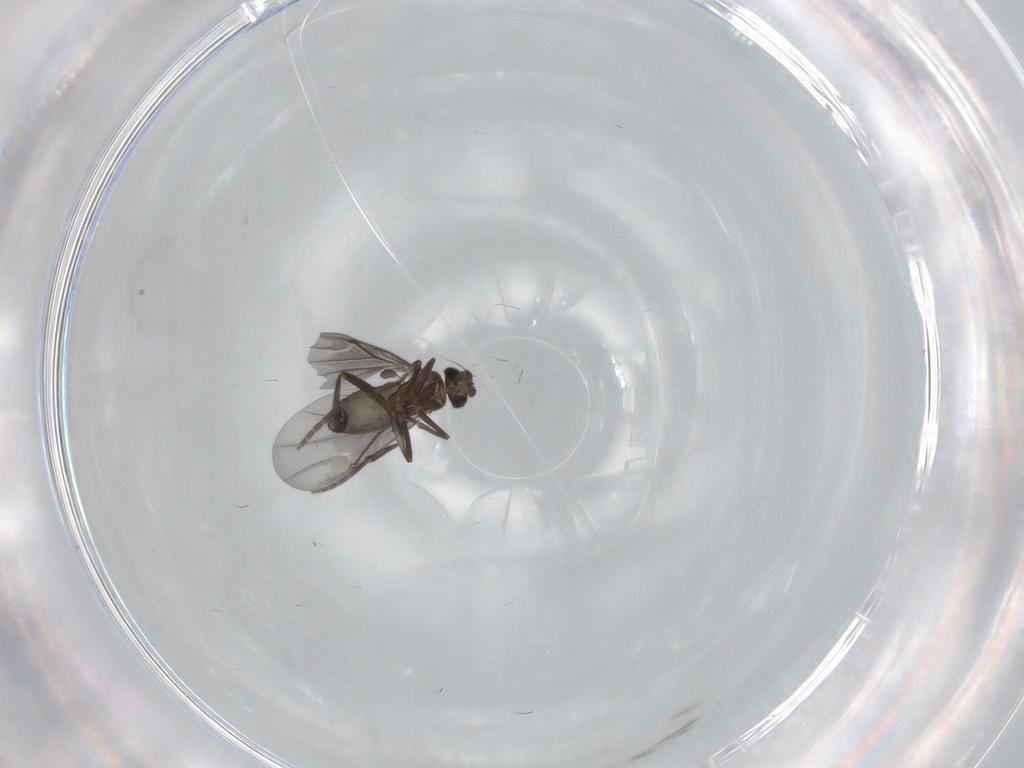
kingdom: Animalia
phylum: Arthropoda
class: Insecta
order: Diptera
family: Phoridae
